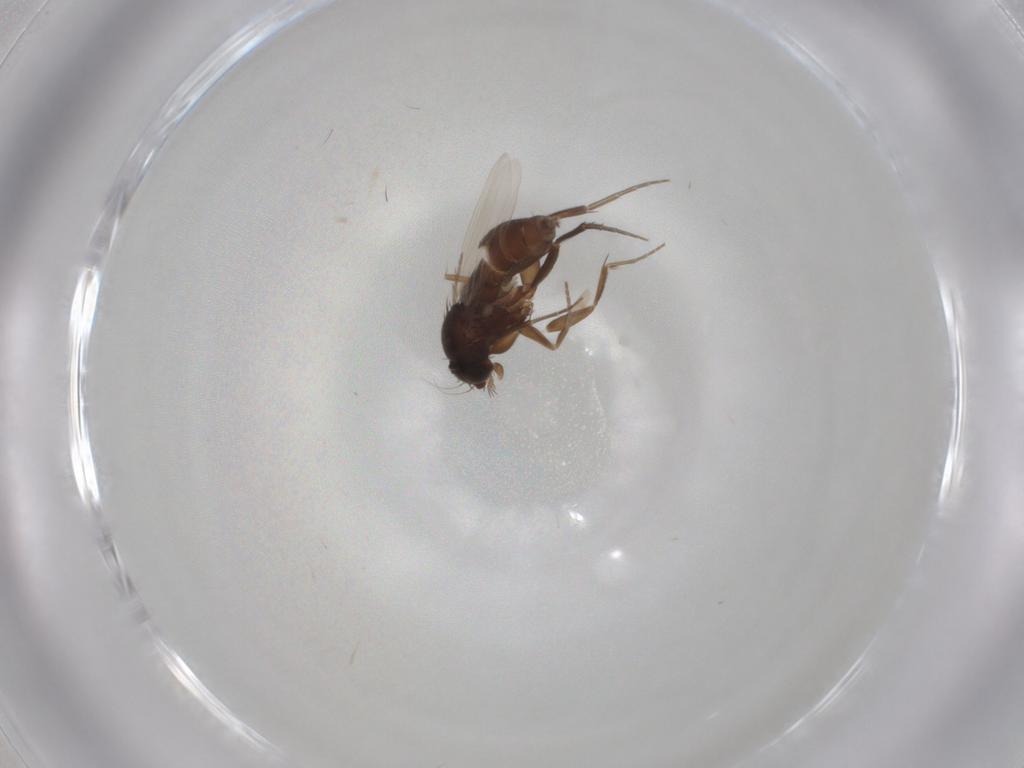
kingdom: Animalia
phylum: Arthropoda
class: Insecta
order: Diptera
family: Phoridae
